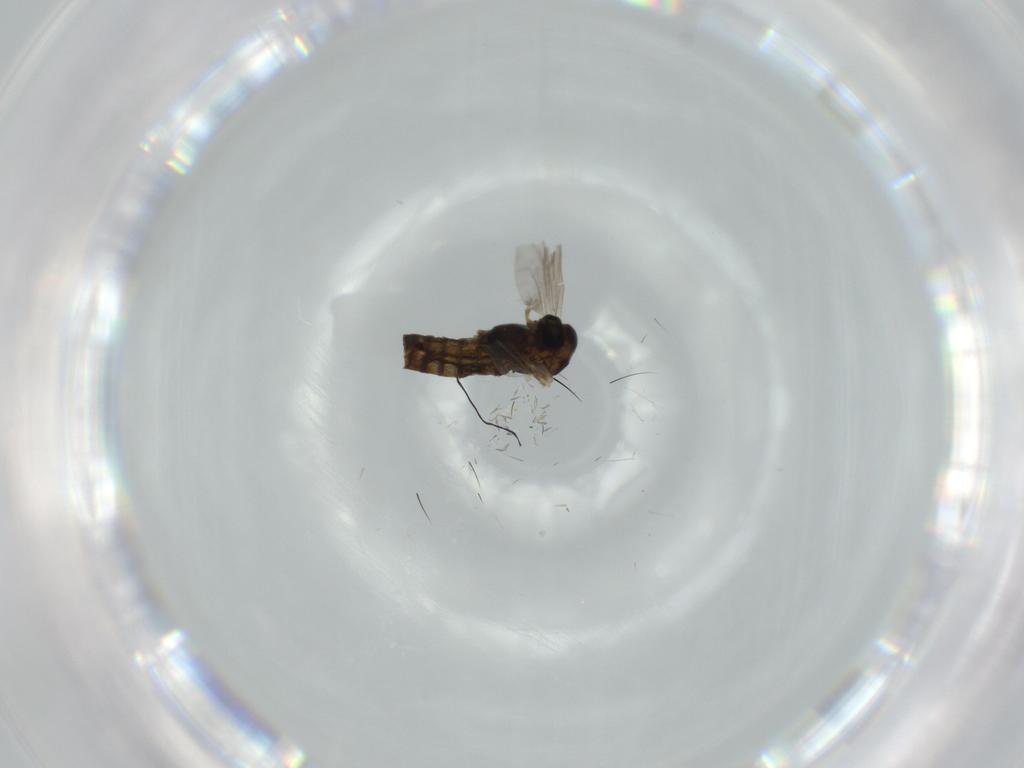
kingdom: Animalia
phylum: Arthropoda
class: Insecta
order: Diptera
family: Chironomidae
